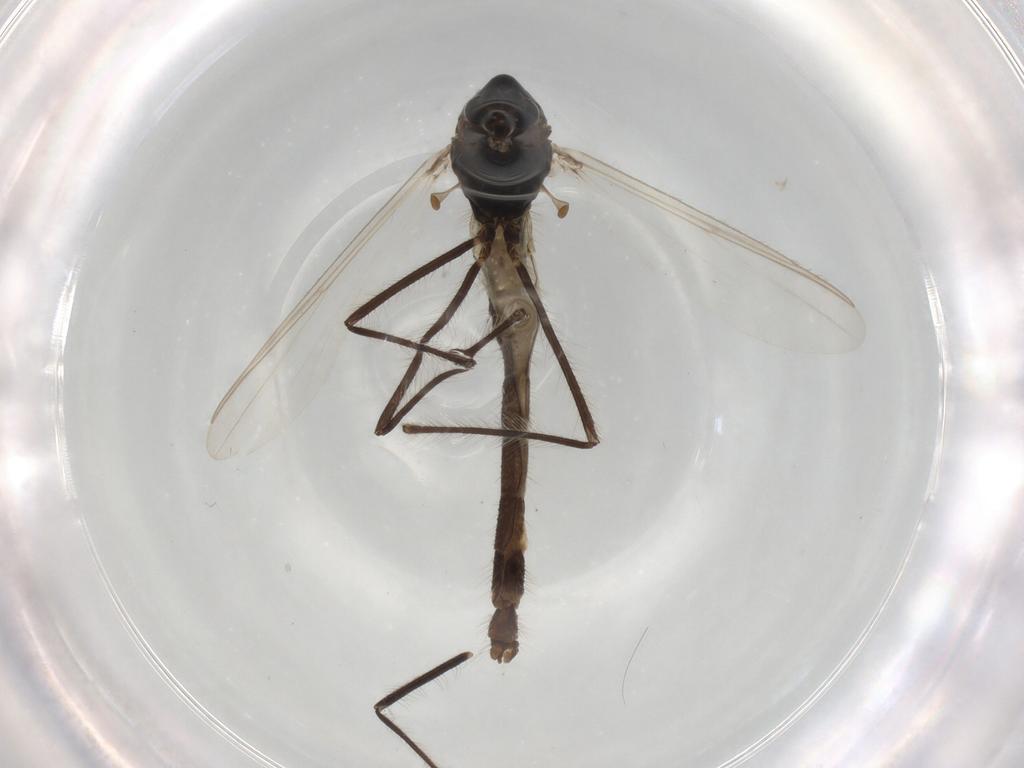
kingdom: Animalia
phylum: Arthropoda
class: Insecta
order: Diptera
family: Chironomidae
